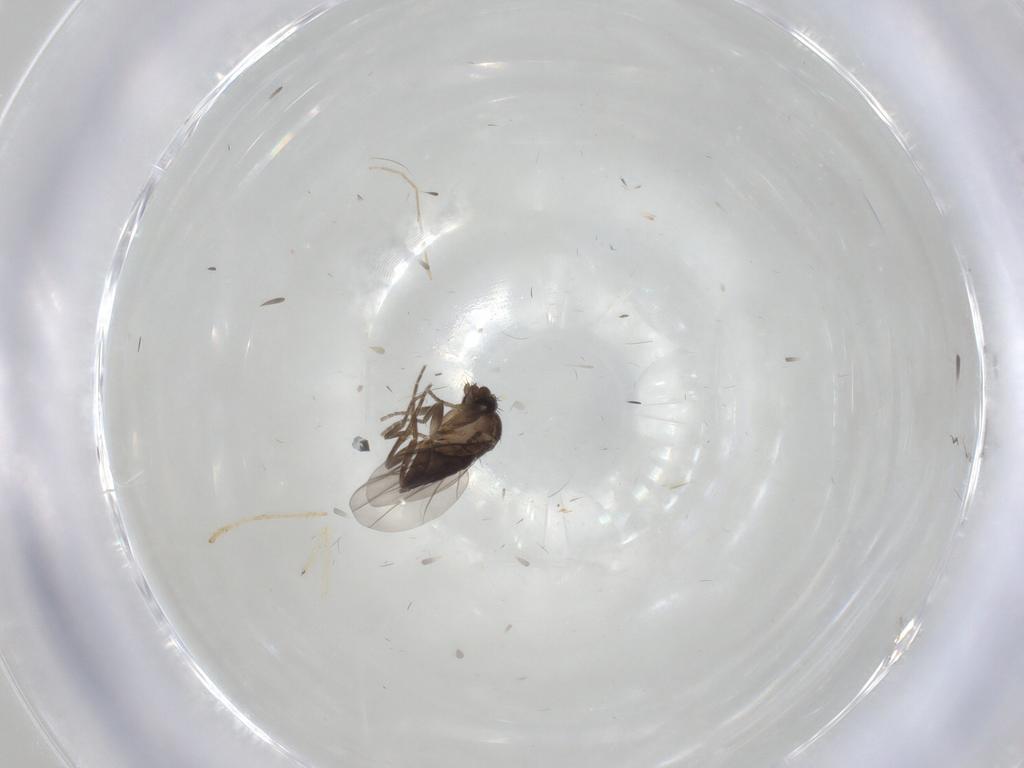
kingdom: Animalia
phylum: Arthropoda
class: Insecta
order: Diptera
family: Sciaridae
